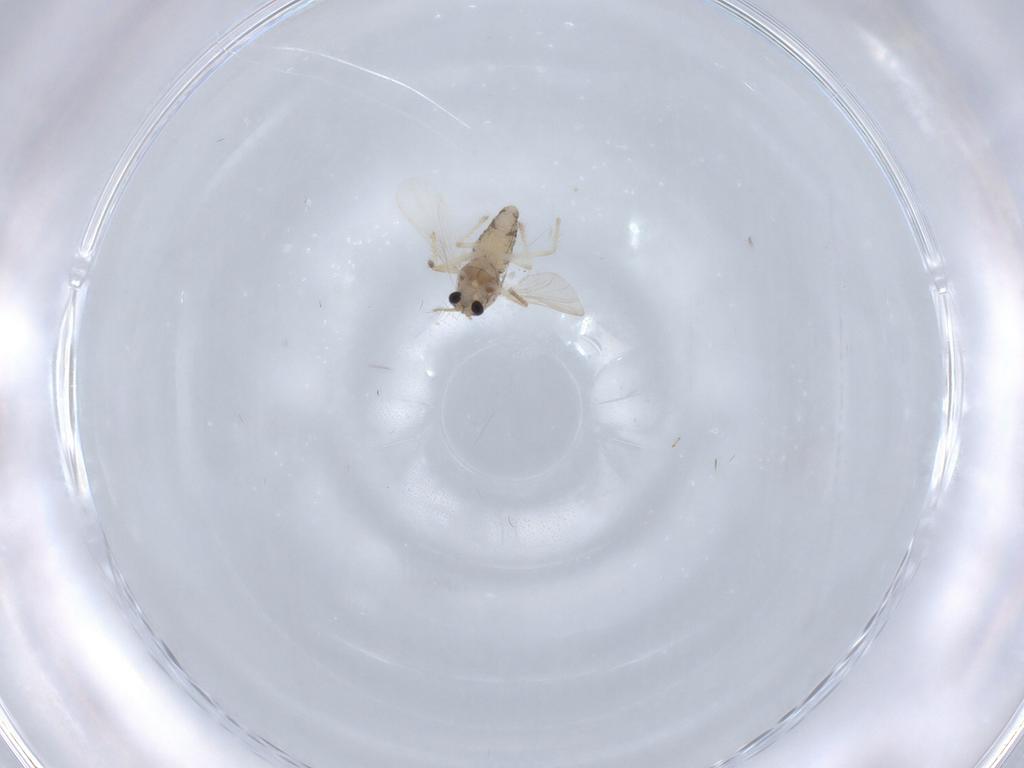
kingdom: Animalia
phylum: Arthropoda
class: Insecta
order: Diptera
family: Chironomidae
